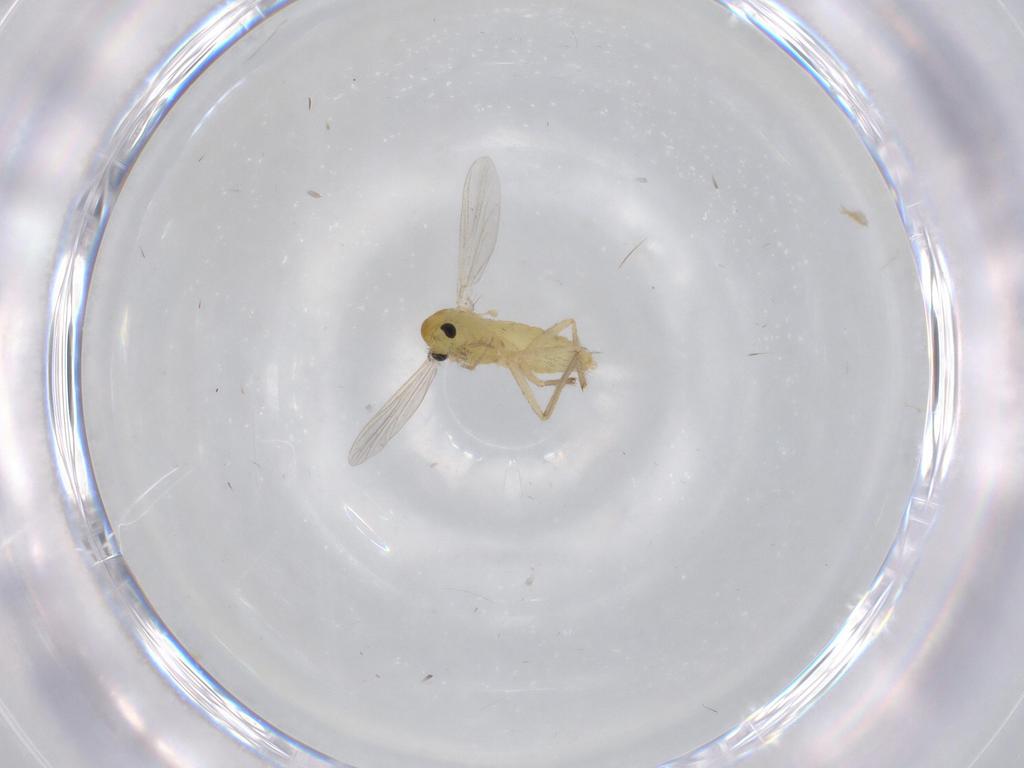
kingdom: Animalia
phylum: Arthropoda
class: Insecta
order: Diptera
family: Chironomidae
